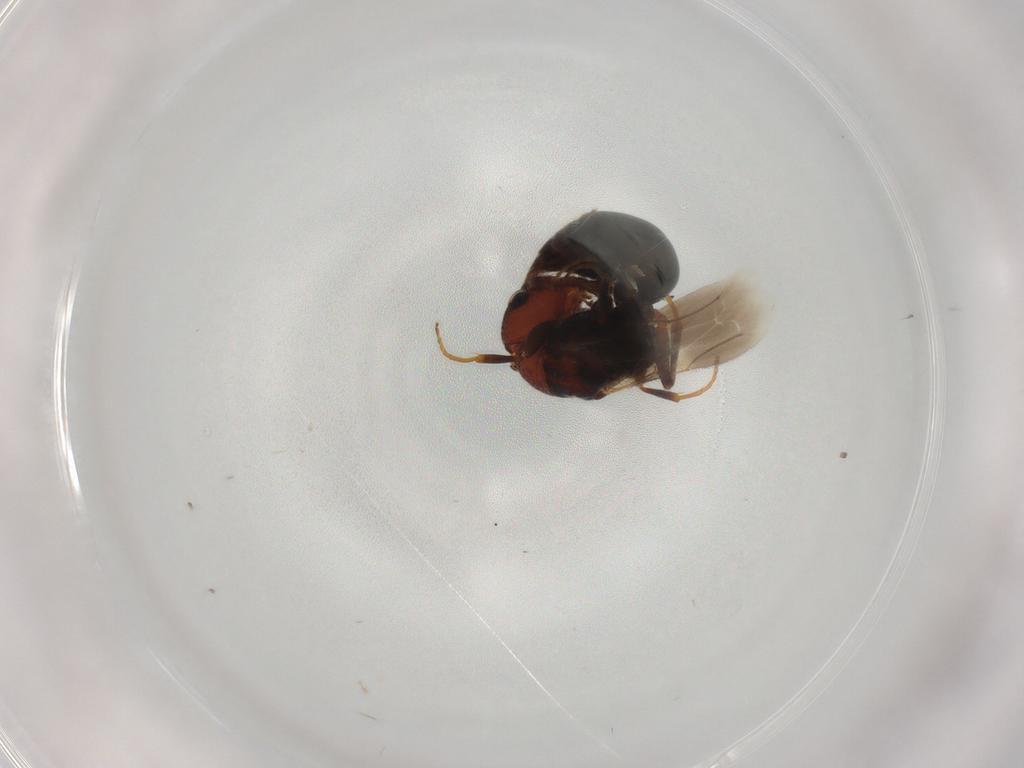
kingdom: Animalia
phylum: Arthropoda
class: Insecta
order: Hymenoptera
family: Bethylidae
